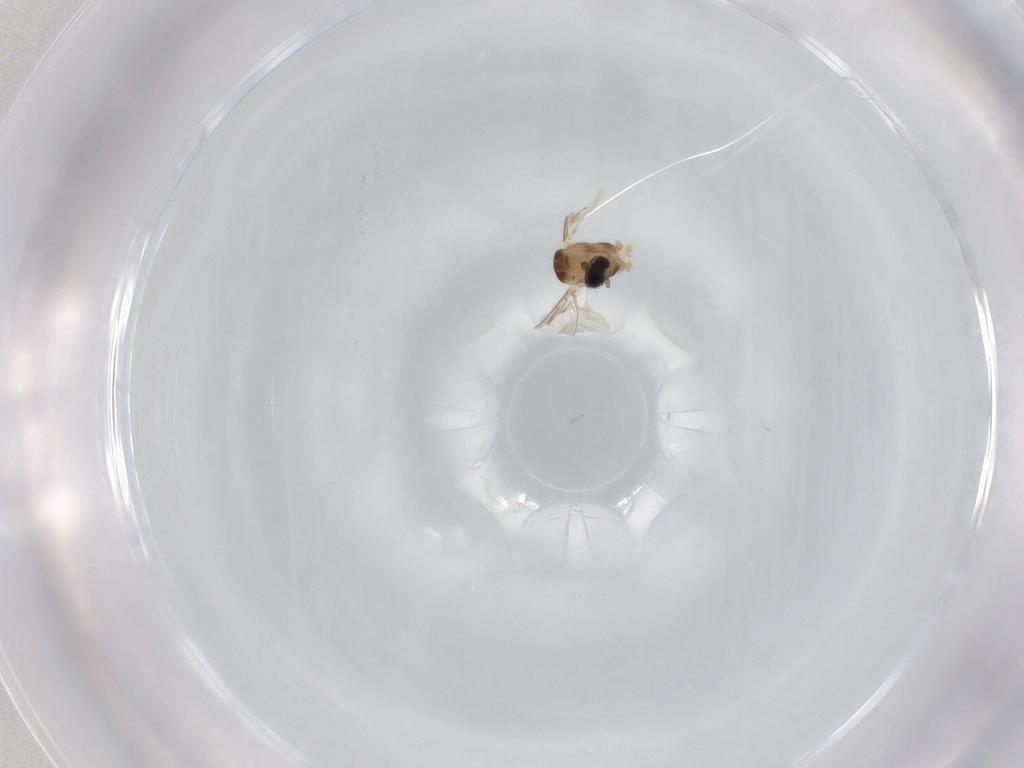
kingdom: Animalia
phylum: Arthropoda
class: Insecta
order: Diptera
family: Cecidomyiidae
